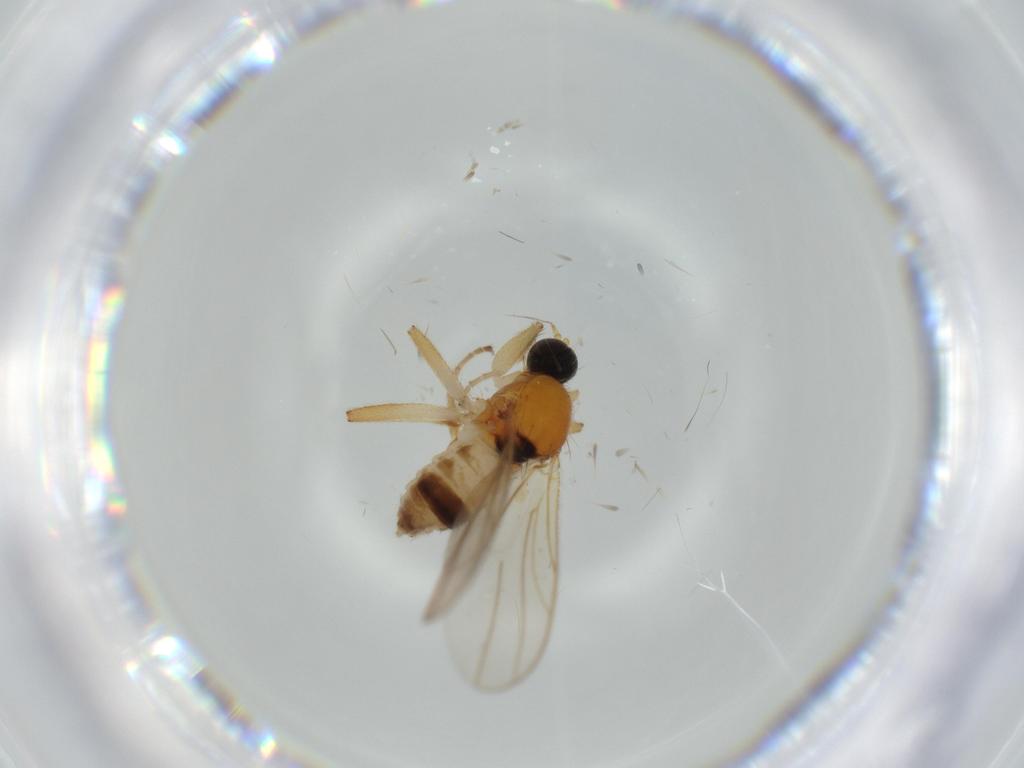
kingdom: Animalia
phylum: Arthropoda
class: Insecta
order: Diptera
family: Hybotidae
